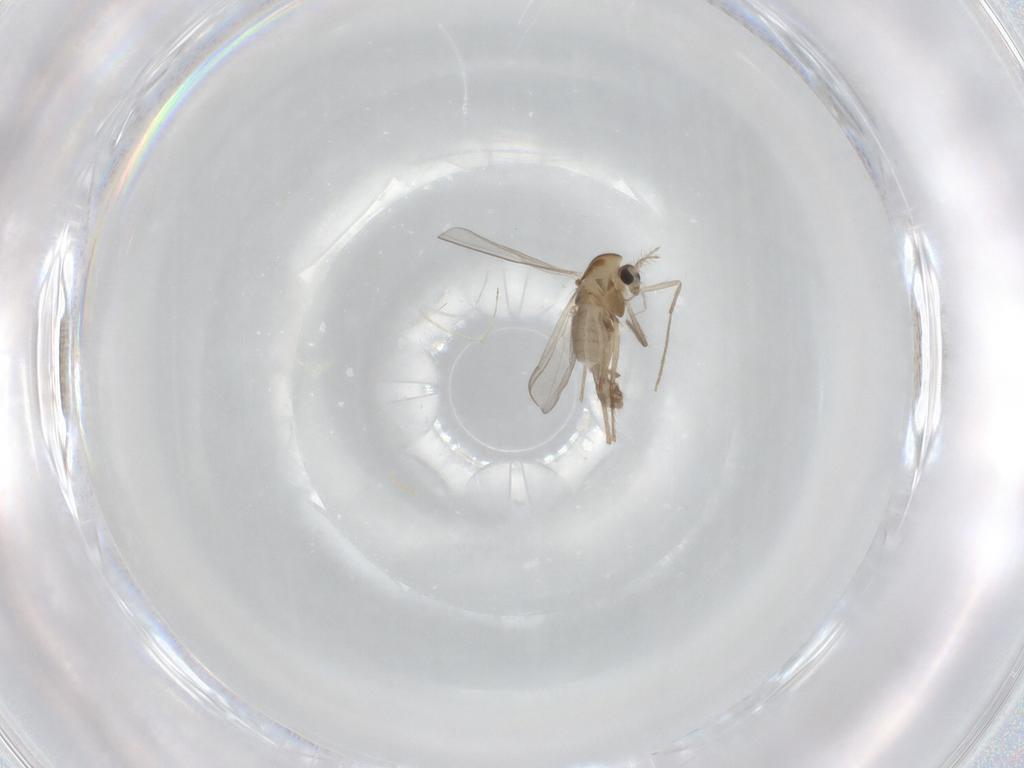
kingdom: Animalia
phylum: Arthropoda
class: Insecta
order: Diptera
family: Chironomidae
